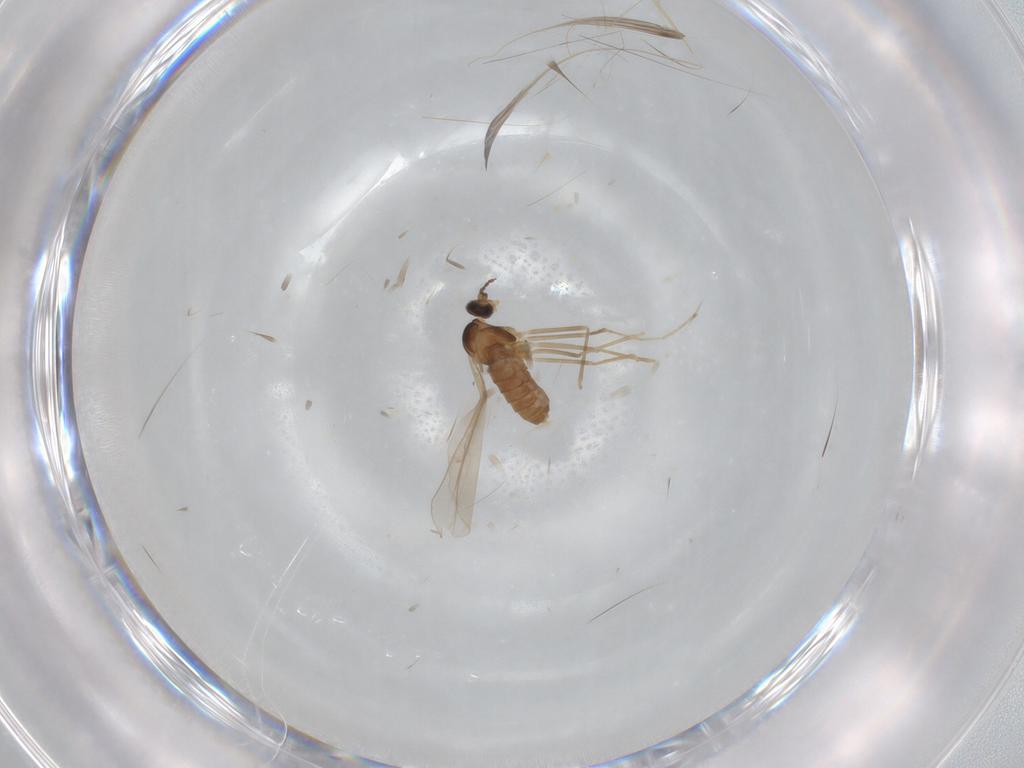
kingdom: Animalia
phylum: Arthropoda
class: Insecta
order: Diptera
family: Cecidomyiidae
